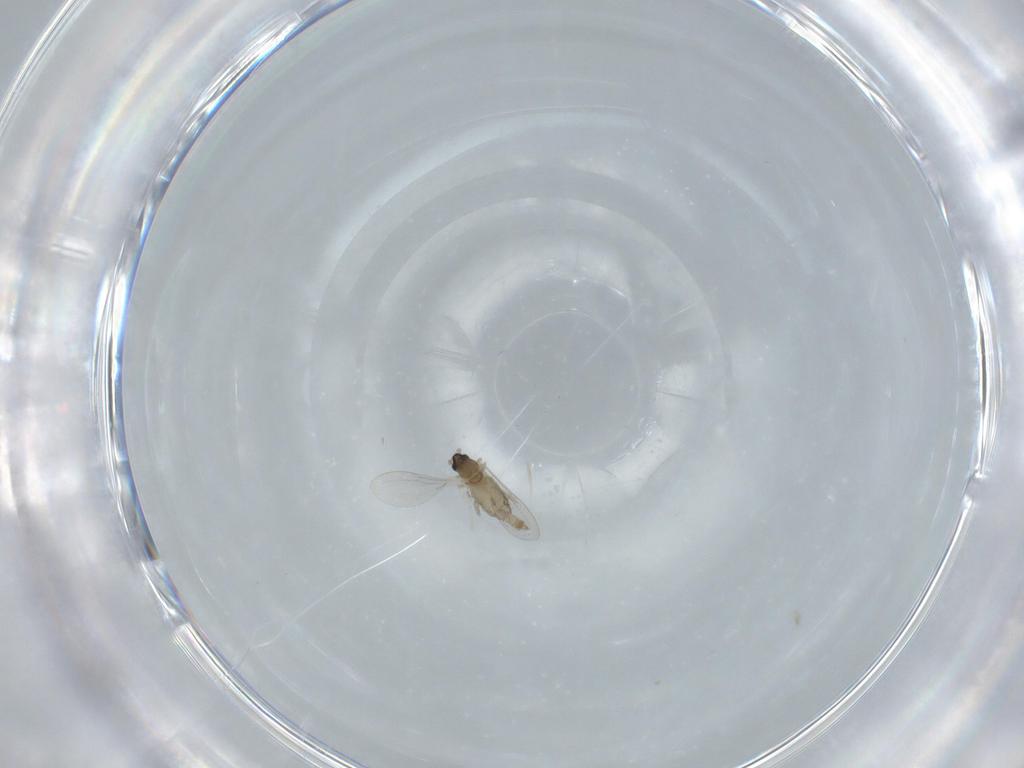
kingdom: Animalia
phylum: Arthropoda
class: Insecta
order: Diptera
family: Cecidomyiidae
